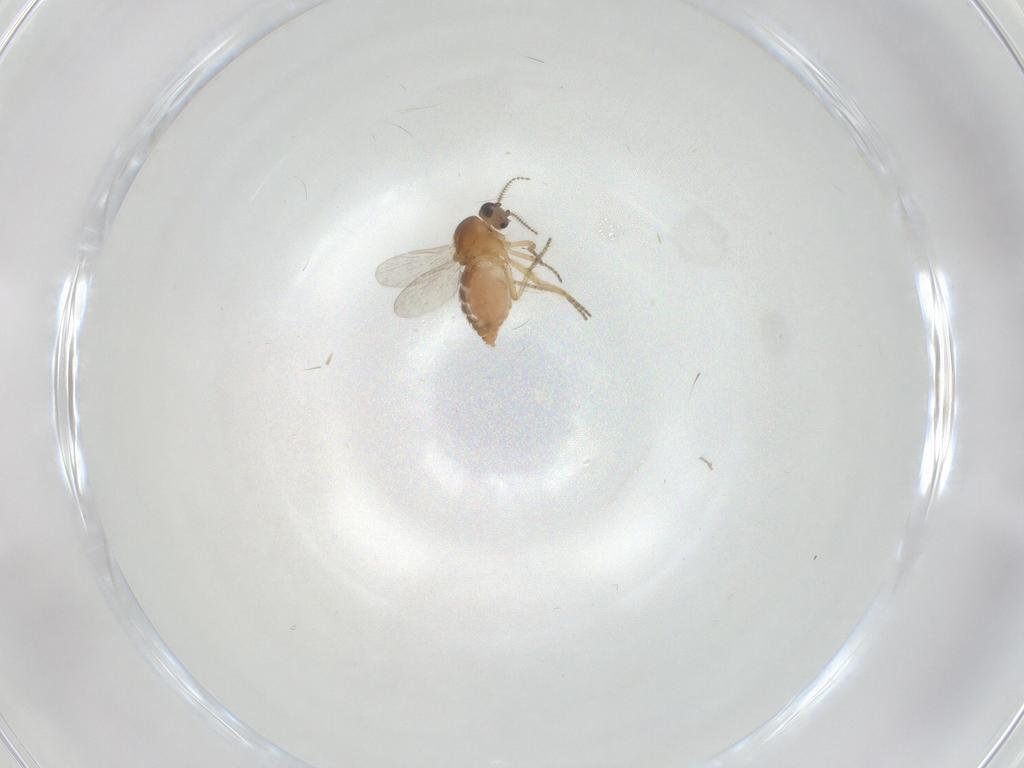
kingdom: Animalia
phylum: Arthropoda
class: Insecta
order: Diptera
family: Ceratopogonidae
